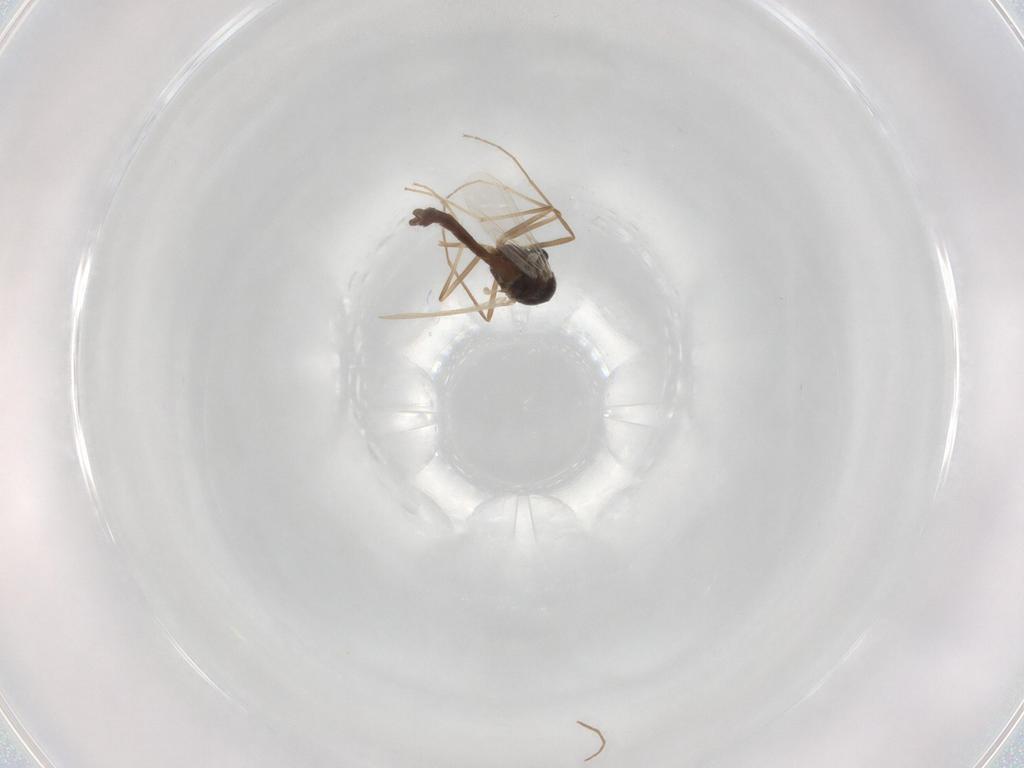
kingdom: Animalia
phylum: Arthropoda
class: Insecta
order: Diptera
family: Chironomidae
